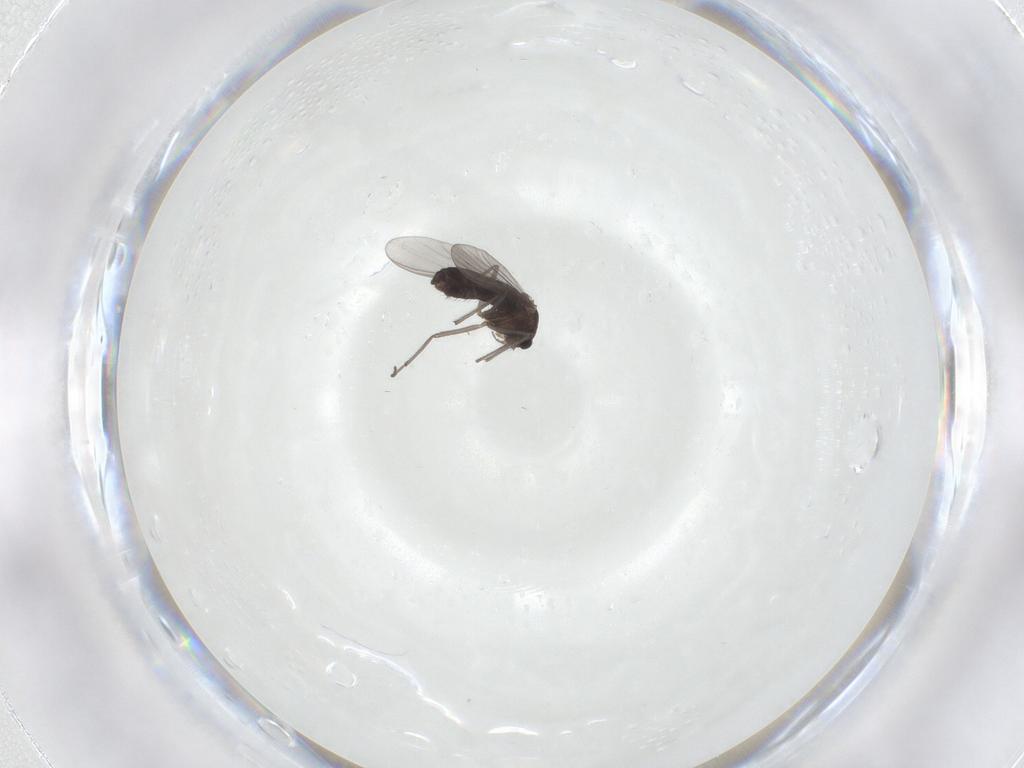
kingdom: Animalia
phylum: Arthropoda
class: Insecta
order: Diptera
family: Chironomidae
